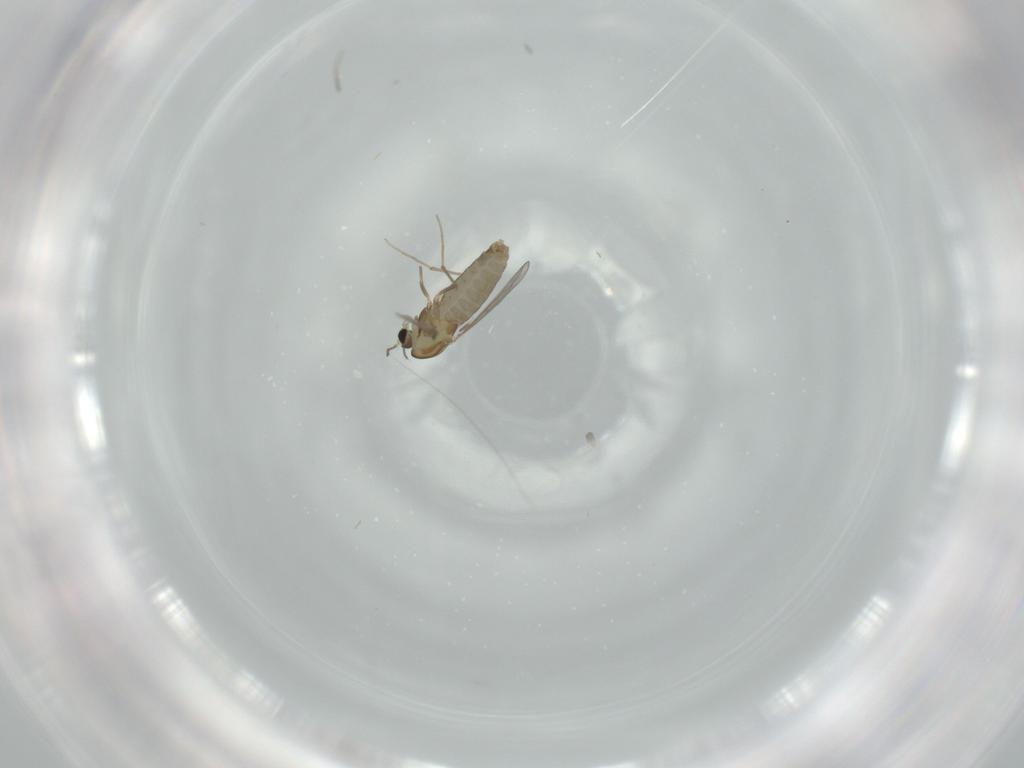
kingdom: Animalia
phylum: Arthropoda
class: Insecta
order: Diptera
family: Chironomidae
